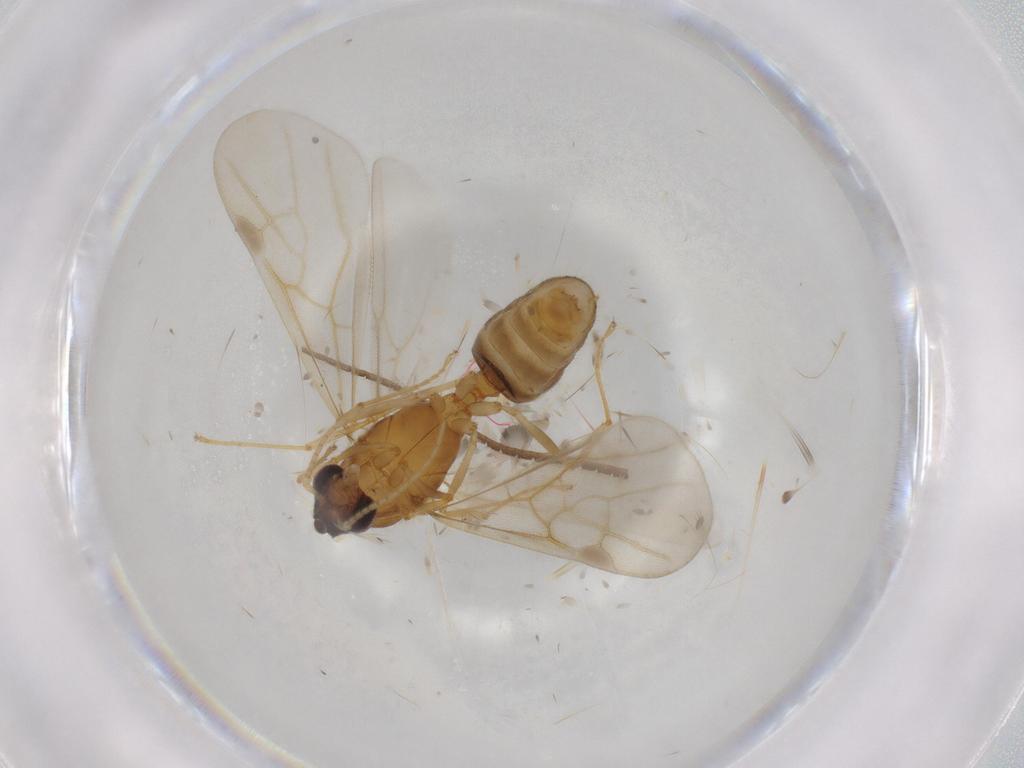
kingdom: Animalia
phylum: Arthropoda
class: Insecta
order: Hymenoptera
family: Formicidae
